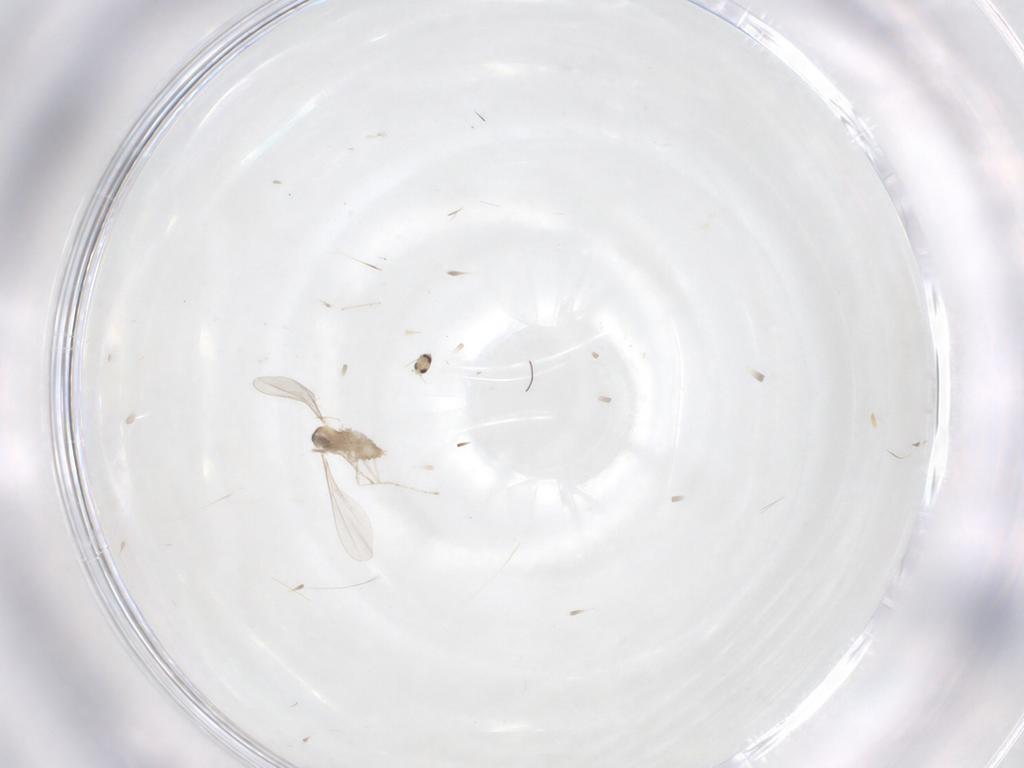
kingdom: Animalia
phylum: Arthropoda
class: Insecta
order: Diptera
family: Cecidomyiidae
